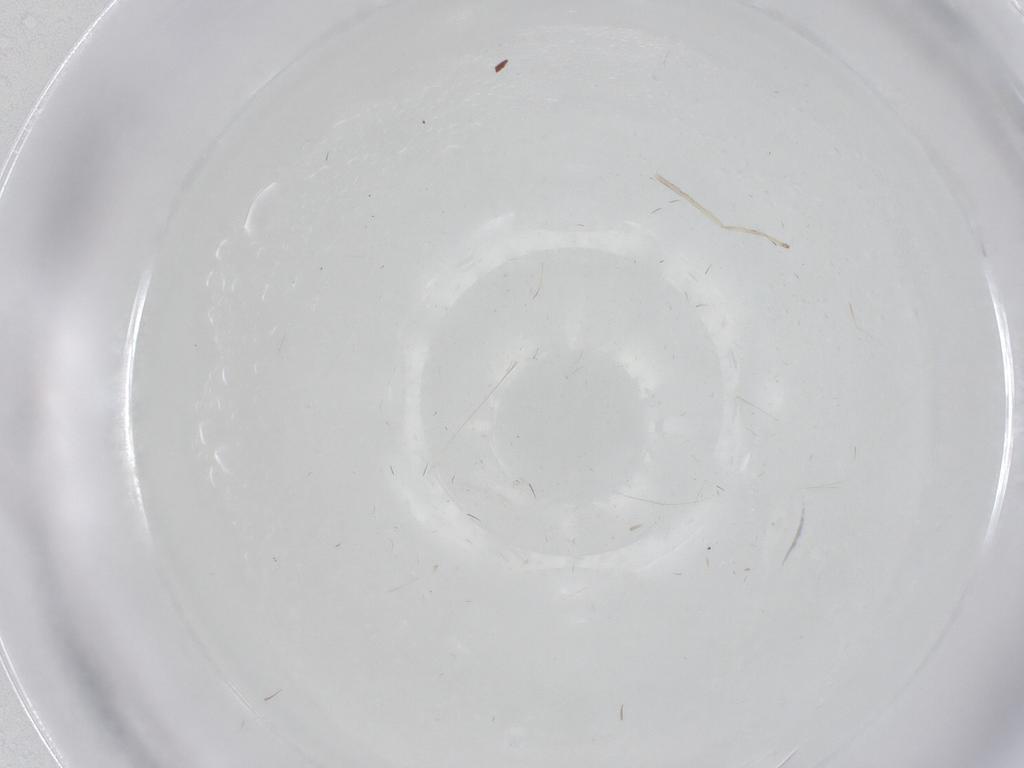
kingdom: Animalia
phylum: Arthropoda
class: Insecta
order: Diptera
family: Cecidomyiidae
